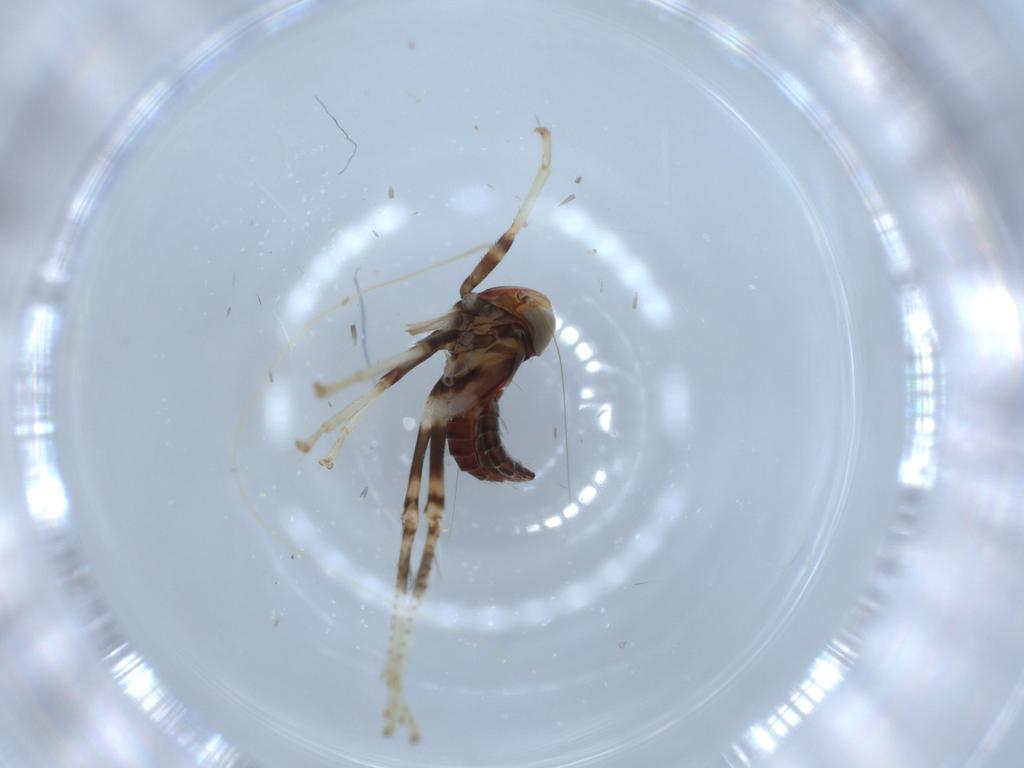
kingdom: Animalia
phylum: Arthropoda
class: Insecta
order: Hemiptera
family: Cicadellidae
